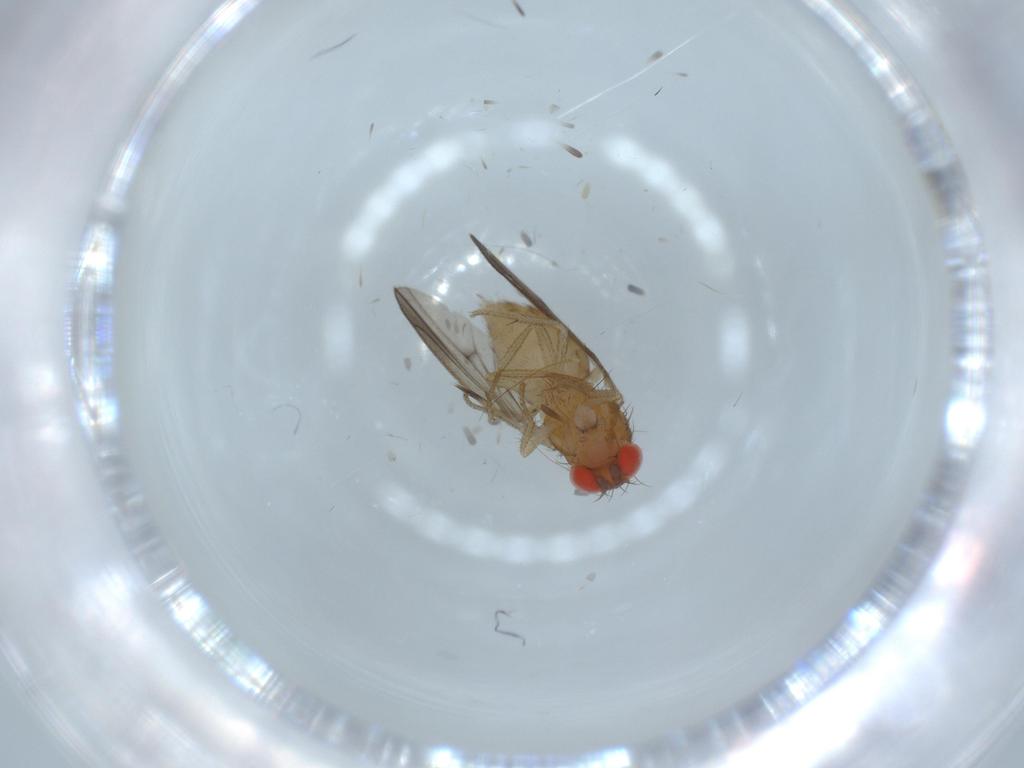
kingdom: Animalia
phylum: Arthropoda
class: Insecta
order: Diptera
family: Drosophilidae
